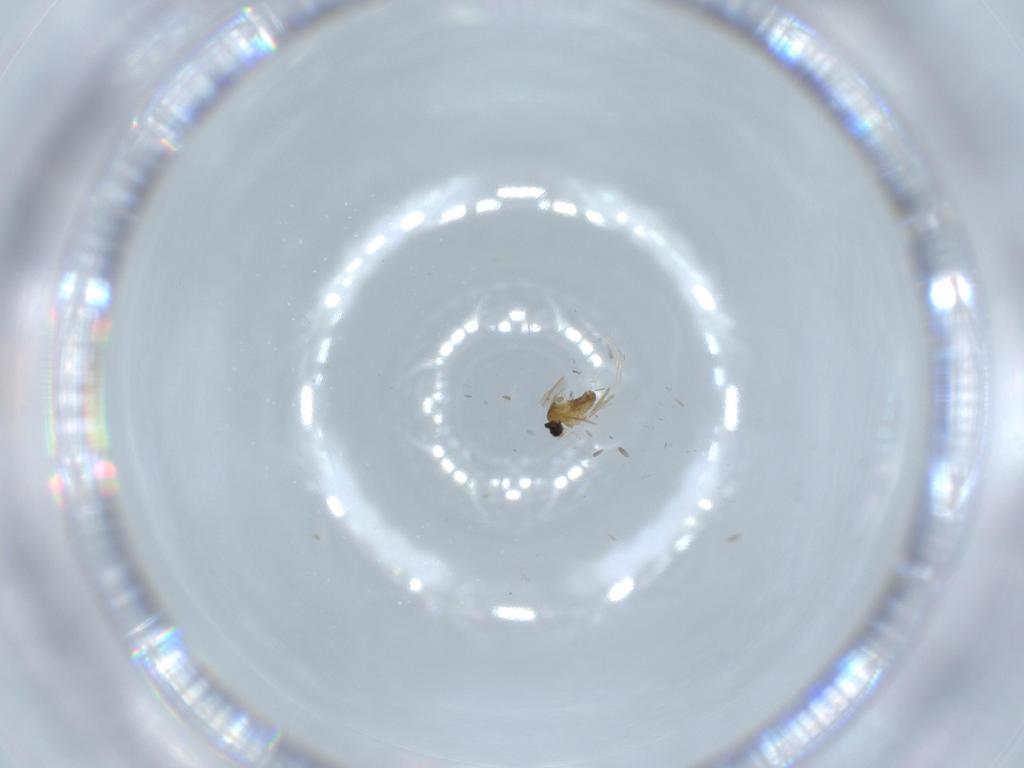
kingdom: Animalia
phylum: Arthropoda
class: Insecta
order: Diptera
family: Cecidomyiidae
